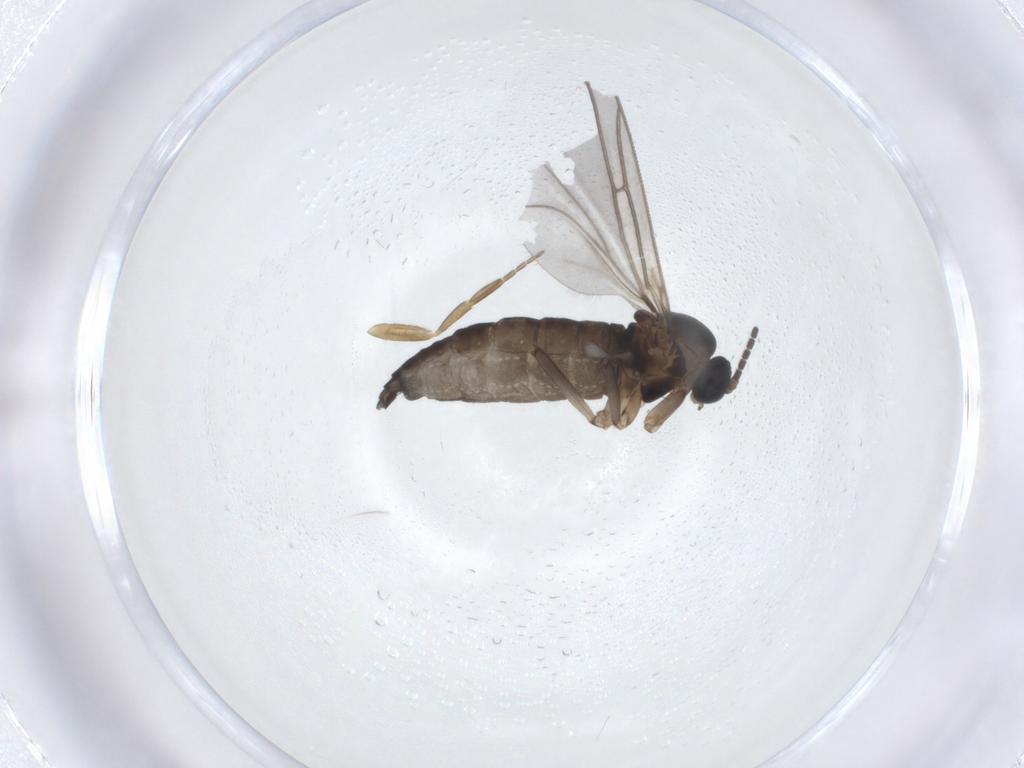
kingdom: Animalia
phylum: Arthropoda
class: Insecta
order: Diptera
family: Sciaridae
